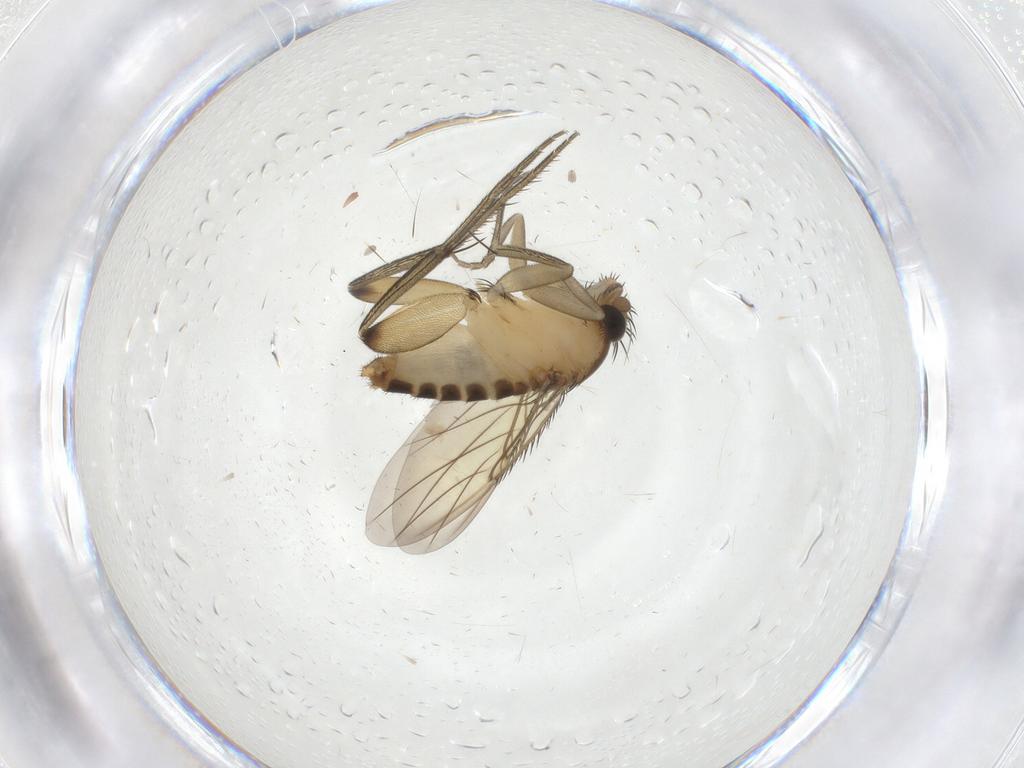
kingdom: Animalia
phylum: Arthropoda
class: Insecta
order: Diptera
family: Phoridae
